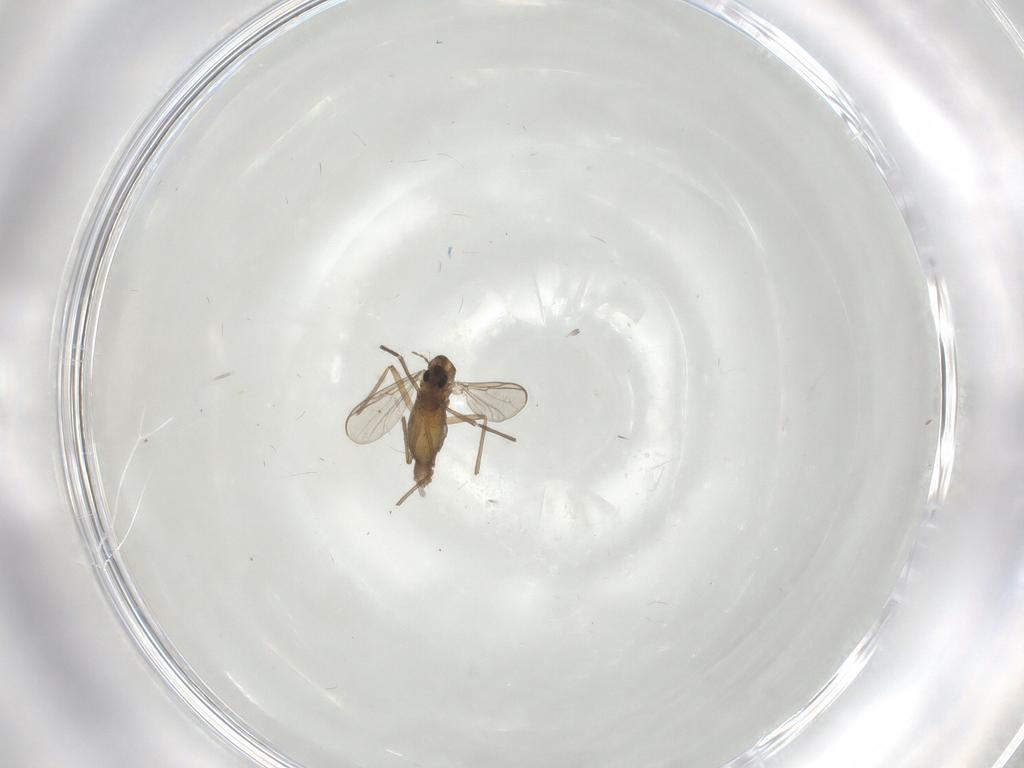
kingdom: Animalia
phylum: Arthropoda
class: Insecta
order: Diptera
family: Chironomidae
